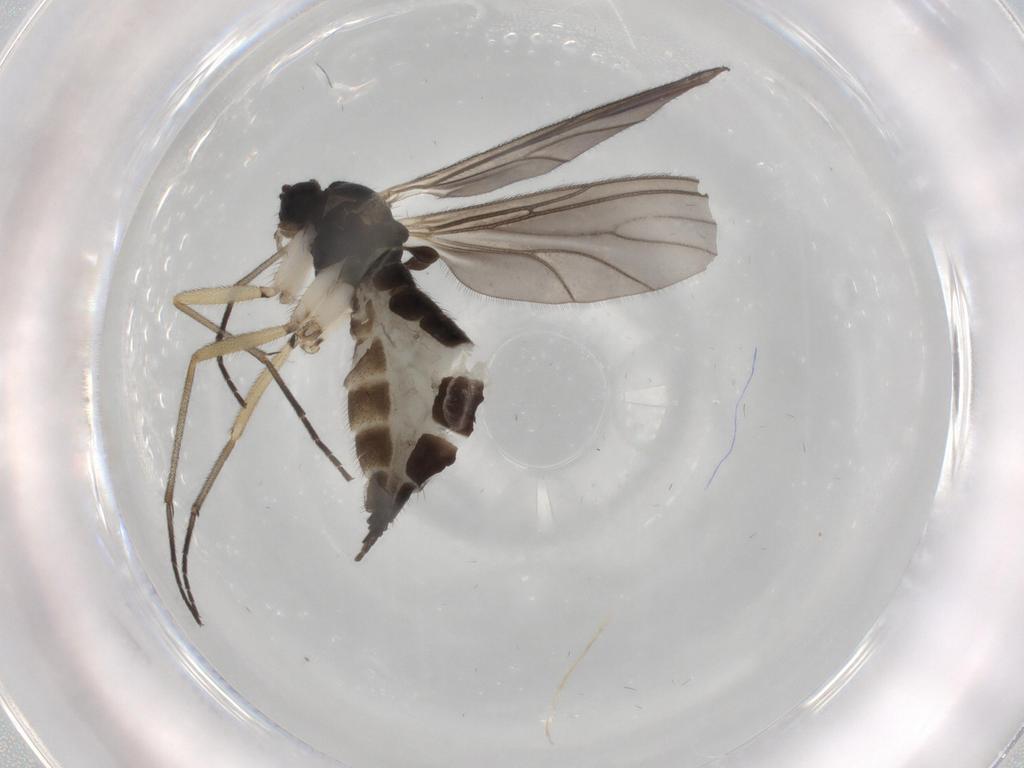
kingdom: Animalia
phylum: Arthropoda
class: Insecta
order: Diptera
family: Sciaridae
